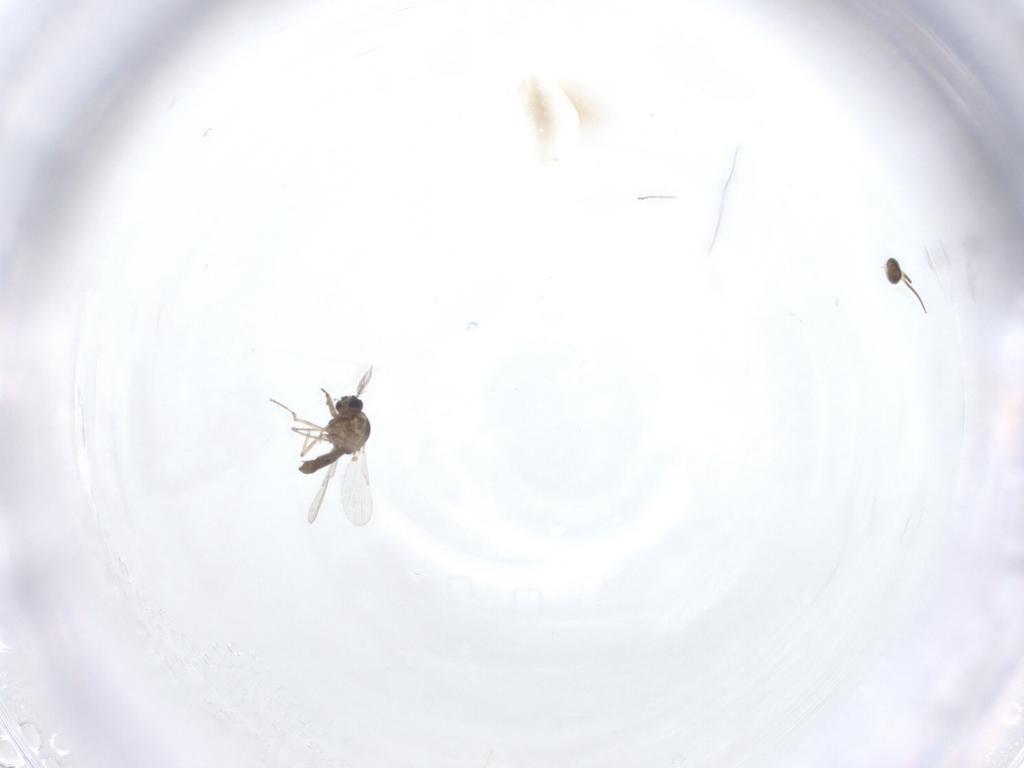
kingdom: Animalia
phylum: Arthropoda
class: Insecta
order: Diptera
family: Cecidomyiidae
